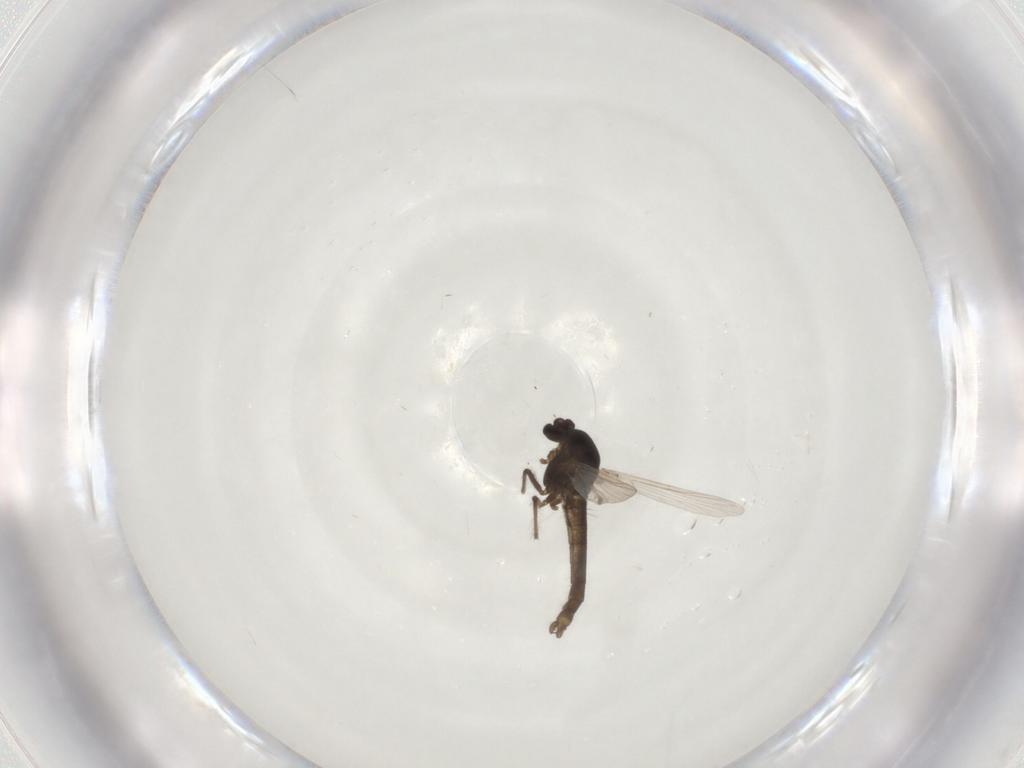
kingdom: Animalia
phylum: Arthropoda
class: Insecta
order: Diptera
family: Chironomidae
